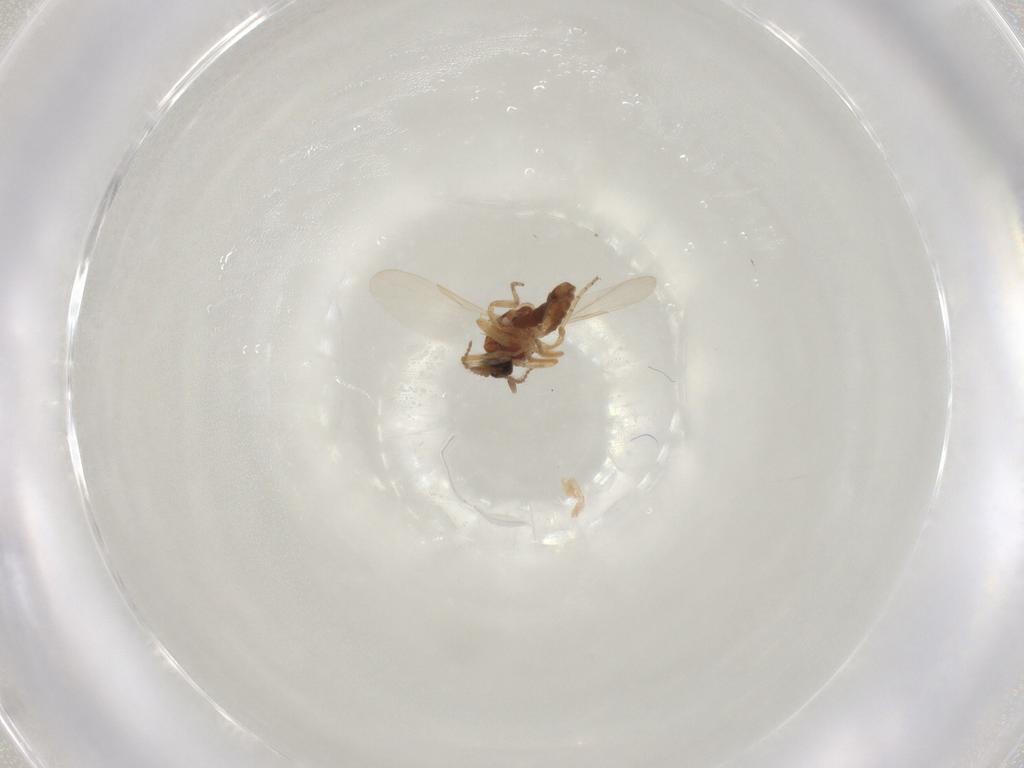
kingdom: Animalia
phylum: Arthropoda
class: Insecta
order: Diptera
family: Ceratopogonidae
